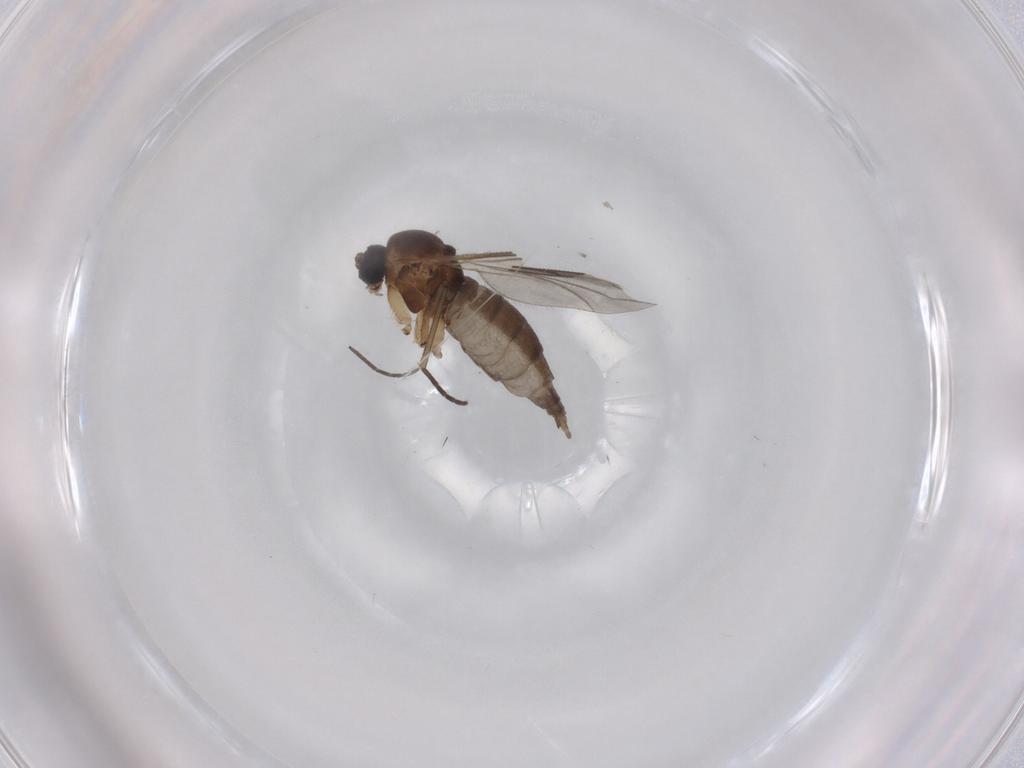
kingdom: Animalia
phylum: Arthropoda
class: Insecta
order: Diptera
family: Sciaridae
